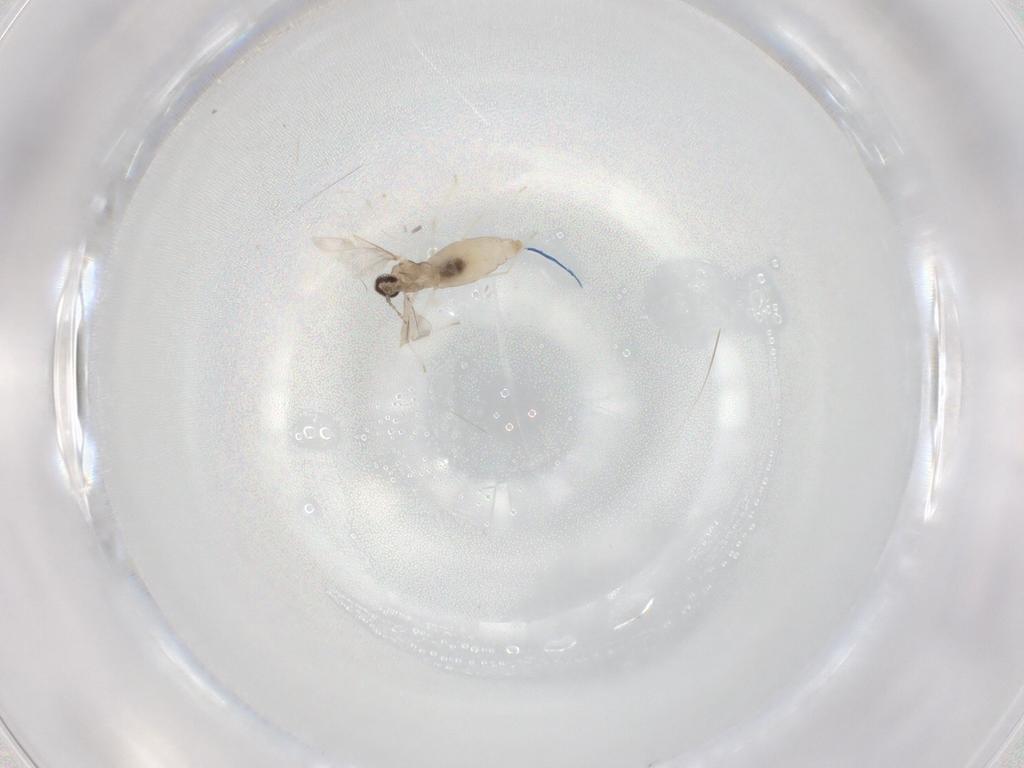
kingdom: Animalia
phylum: Arthropoda
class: Insecta
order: Diptera
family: Cecidomyiidae
